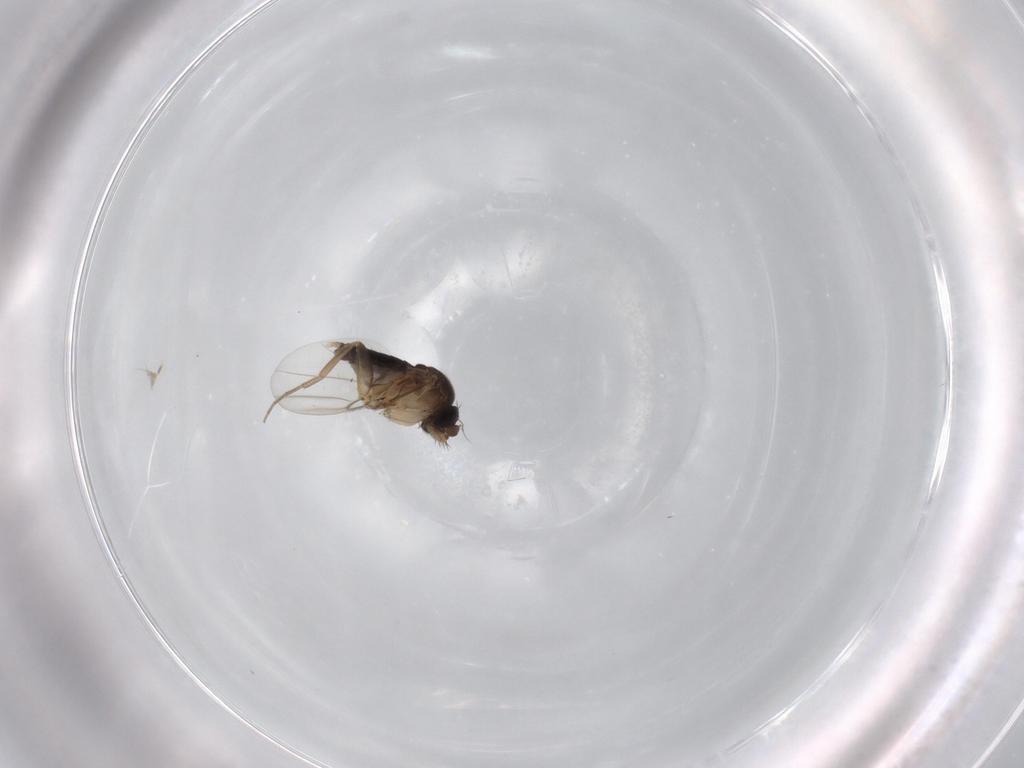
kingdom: Animalia
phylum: Arthropoda
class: Insecta
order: Diptera
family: Phoridae
